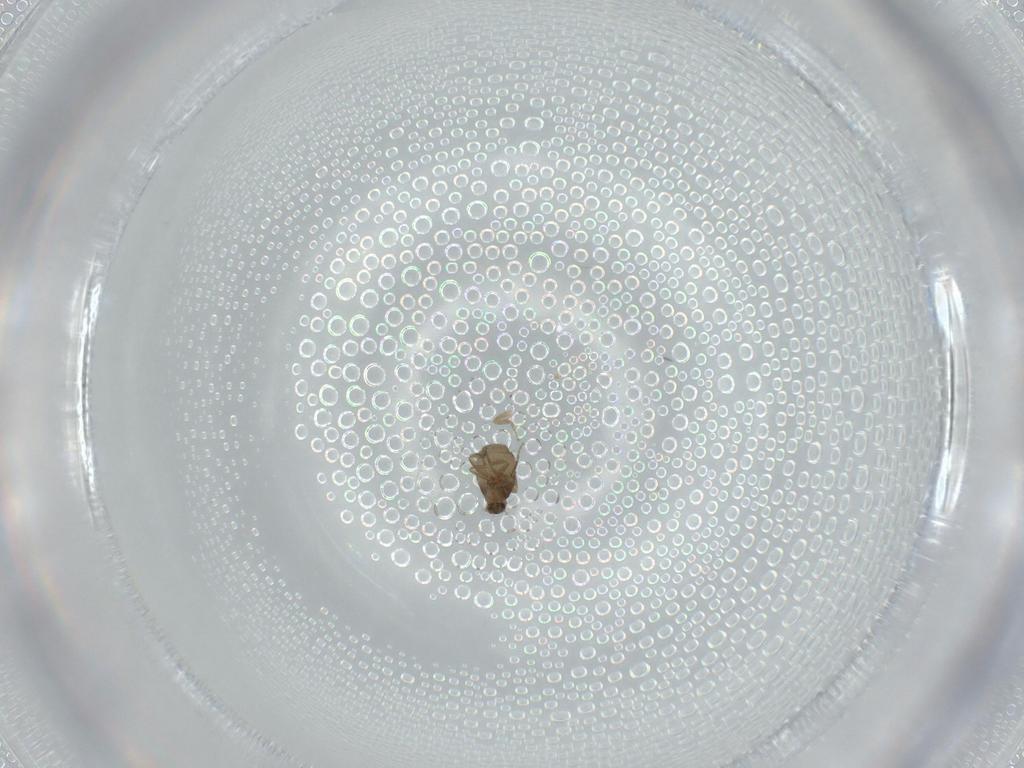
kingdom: Animalia
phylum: Arthropoda
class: Insecta
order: Diptera
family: Phoridae
